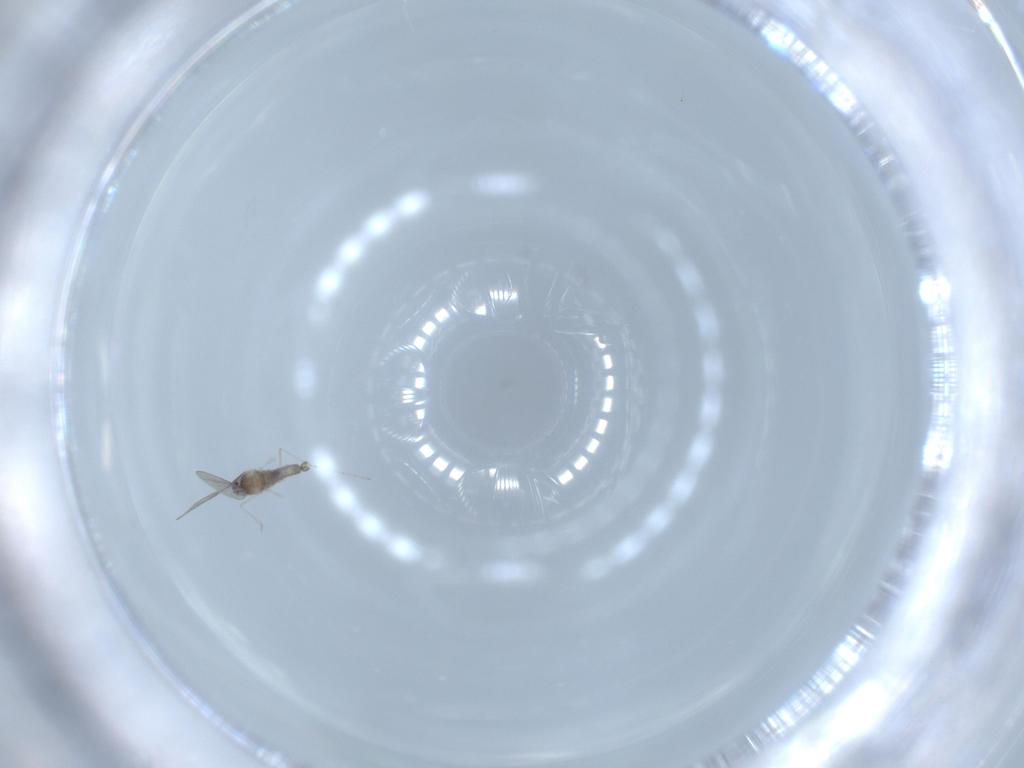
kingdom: Animalia
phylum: Arthropoda
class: Insecta
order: Diptera
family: Cecidomyiidae
